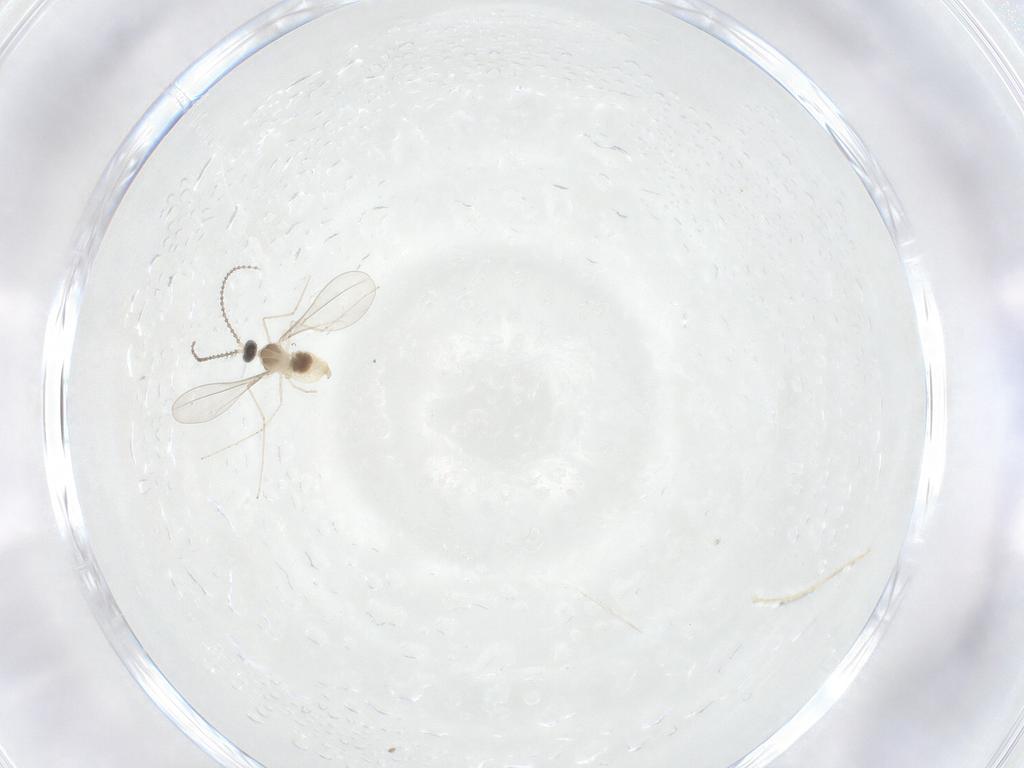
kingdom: Animalia
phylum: Arthropoda
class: Insecta
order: Diptera
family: Cecidomyiidae
